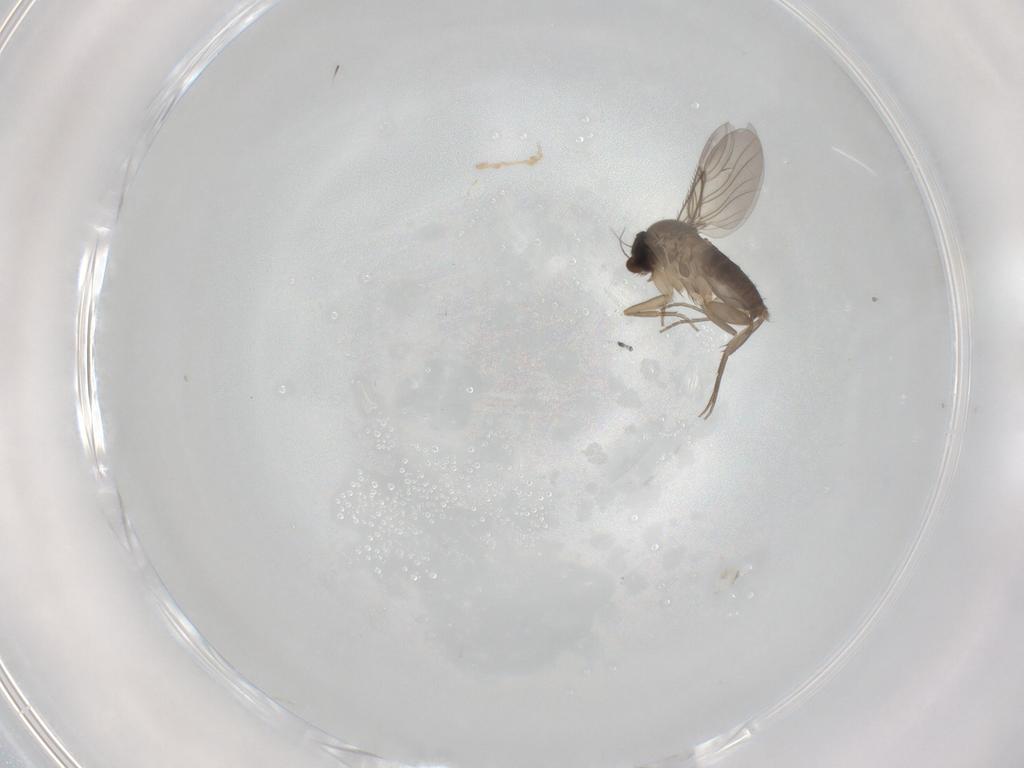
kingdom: Animalia
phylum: Arthropoda
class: Insecta
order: Diptera
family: Phoridae
